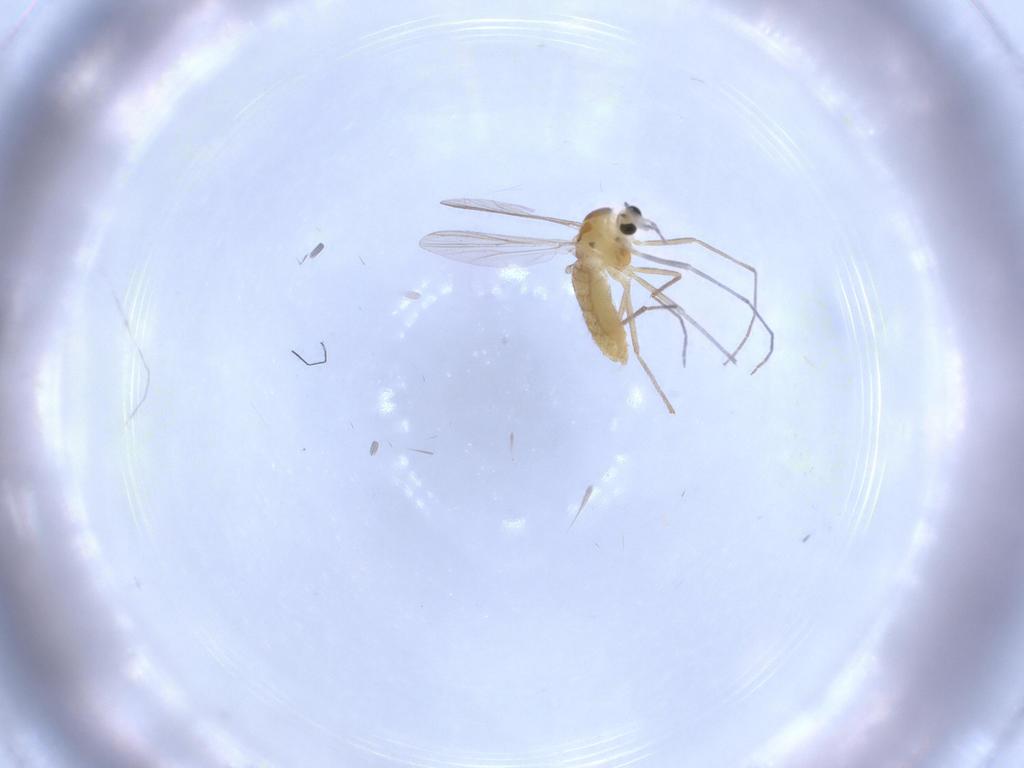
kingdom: Animalia
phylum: Arthropoda
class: Insecta
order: Diptera
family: Chironomidae
